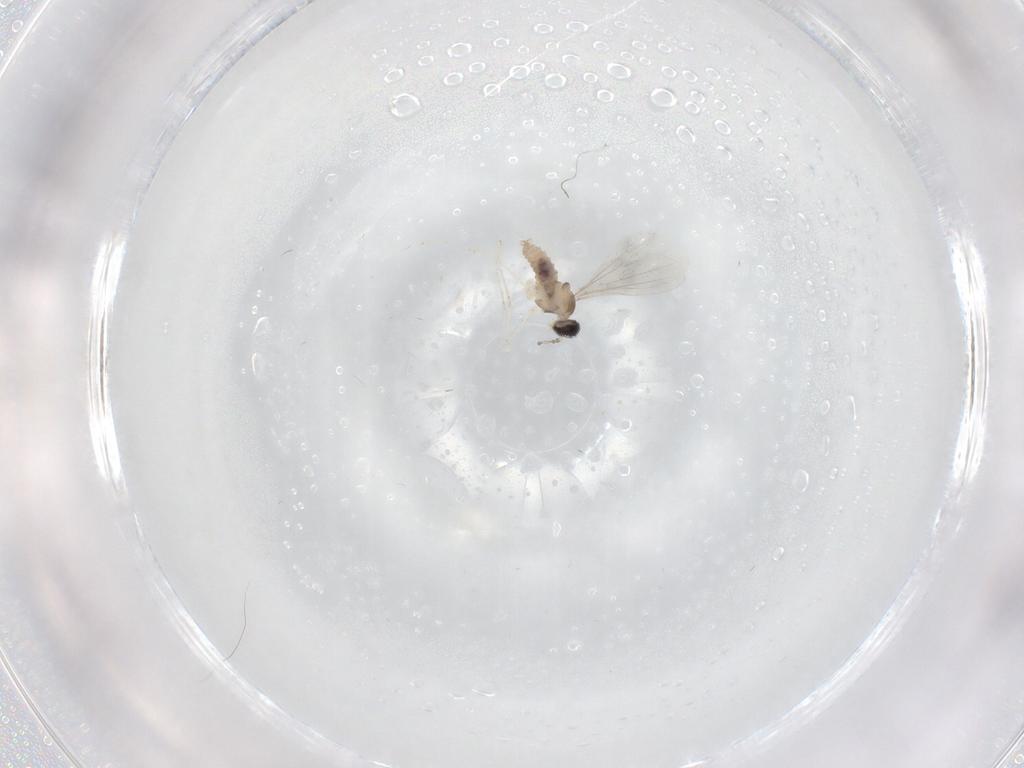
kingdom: Animalia
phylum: Arthropoda
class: Insecta
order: Diptera
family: Cecidomyiidae
